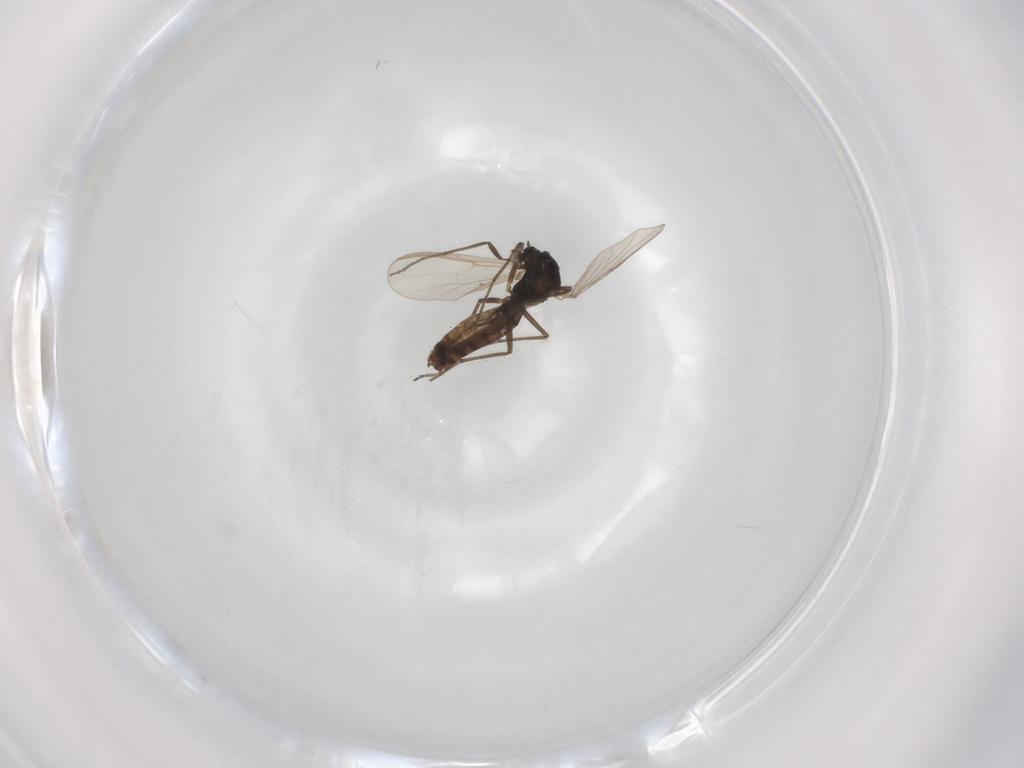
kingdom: Animalia
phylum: Arthropoda
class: Insecta
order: Diptera
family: Chironomidae
